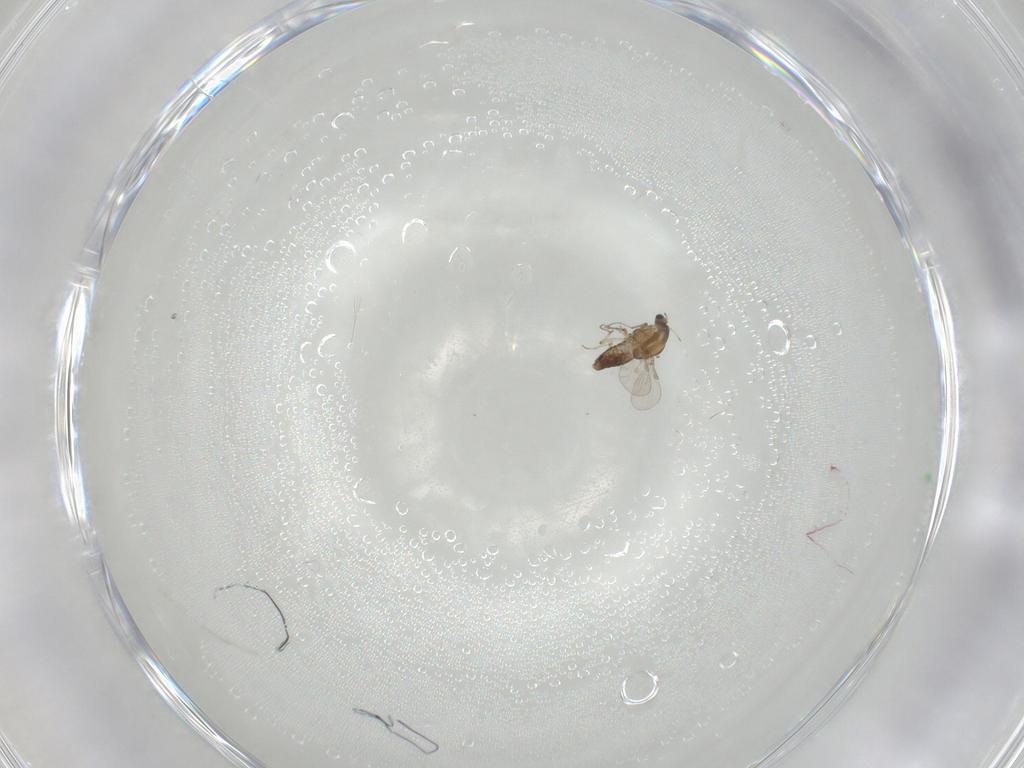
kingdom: Animalia
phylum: Arthropoda
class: Insecta
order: Diptera
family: Chironomidae
